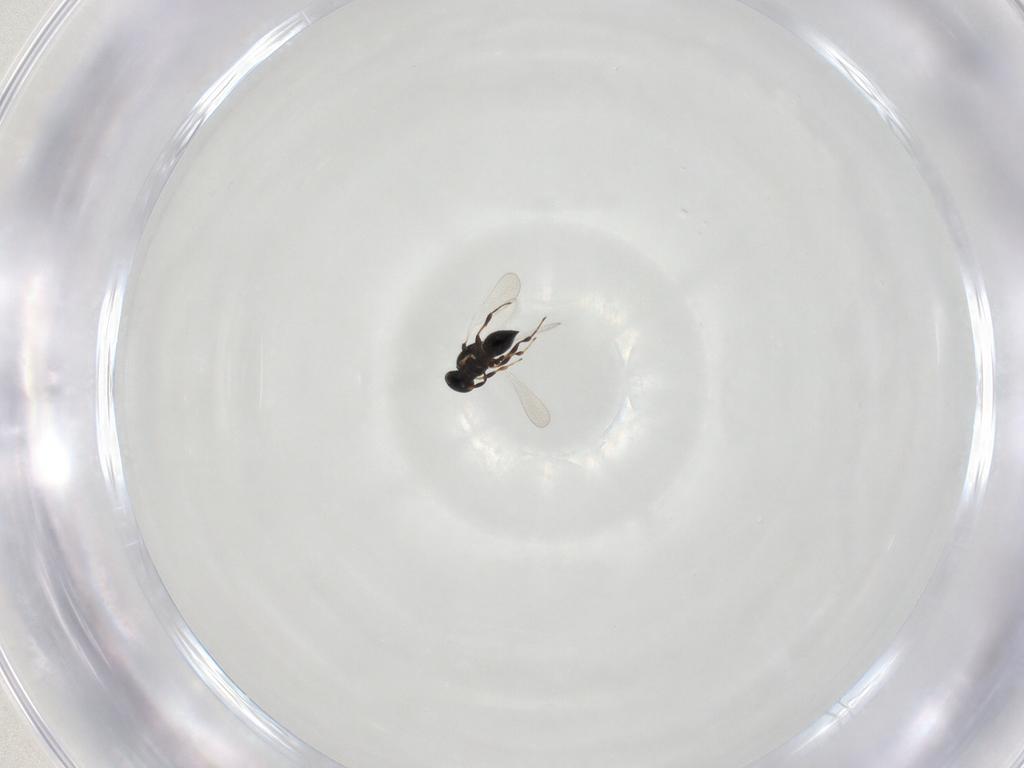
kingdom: Animalia
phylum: Arthropoda
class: Insecta
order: Hymenoptera
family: Platygastridae
